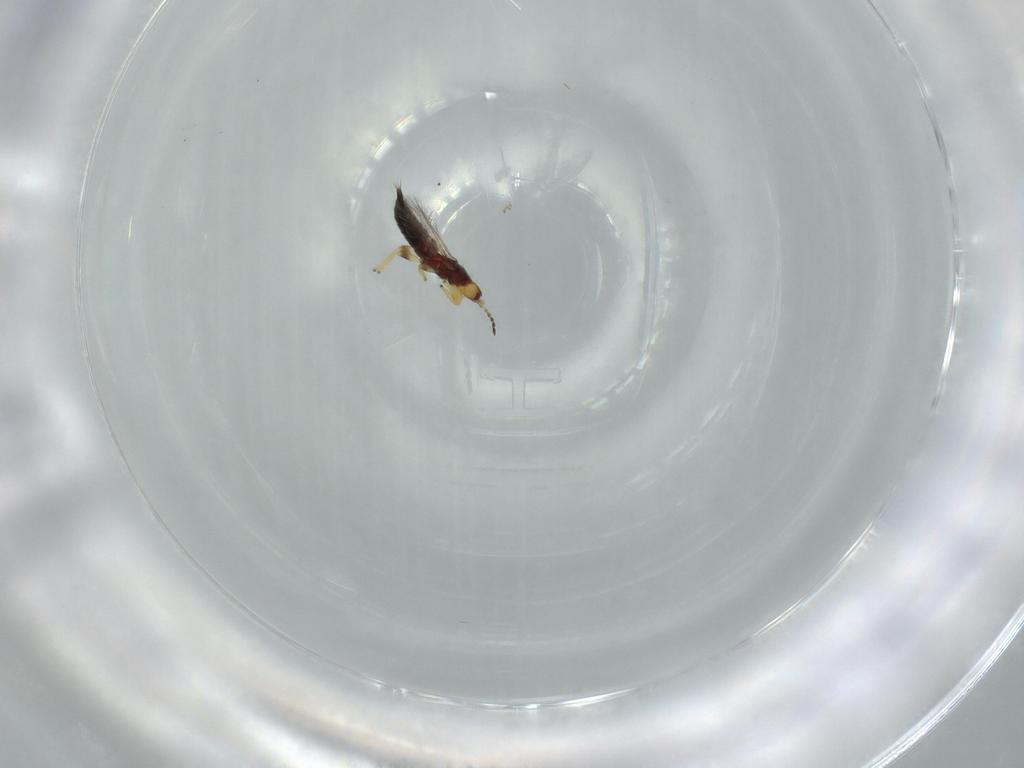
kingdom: Animalia
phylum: Arthropoda
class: Insecta
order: Thysanoptera
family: Phlaeothripidae
